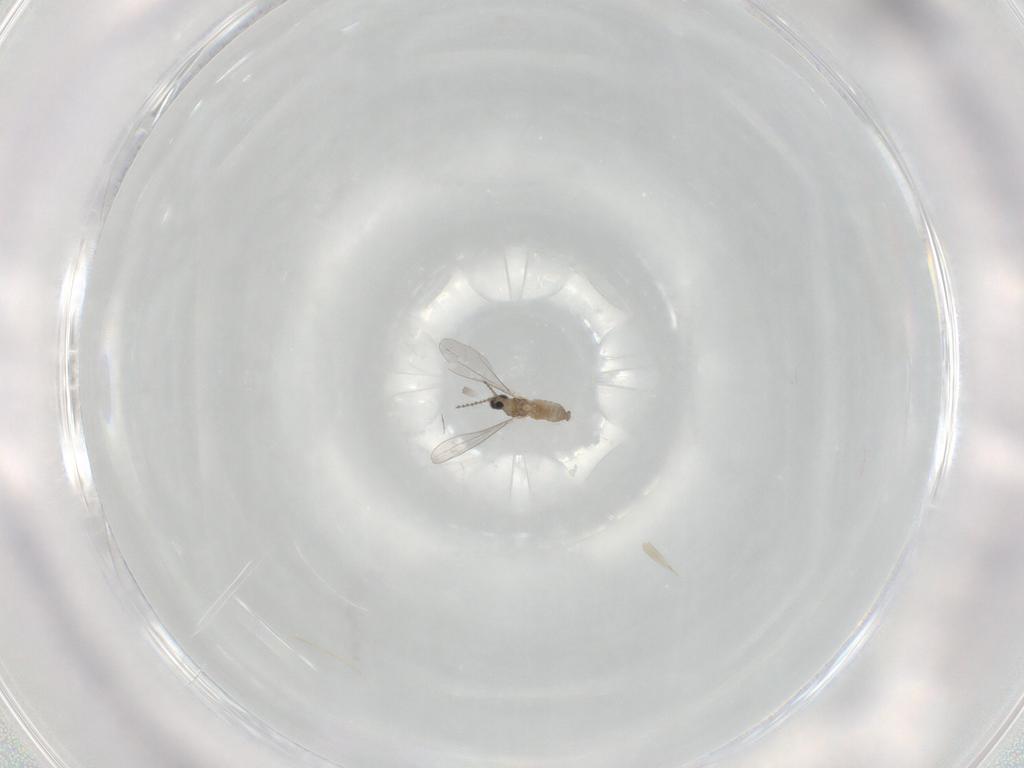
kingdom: Animalia
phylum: Arthropoda
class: Insecta
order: Diptera
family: Cecidomyiidae
